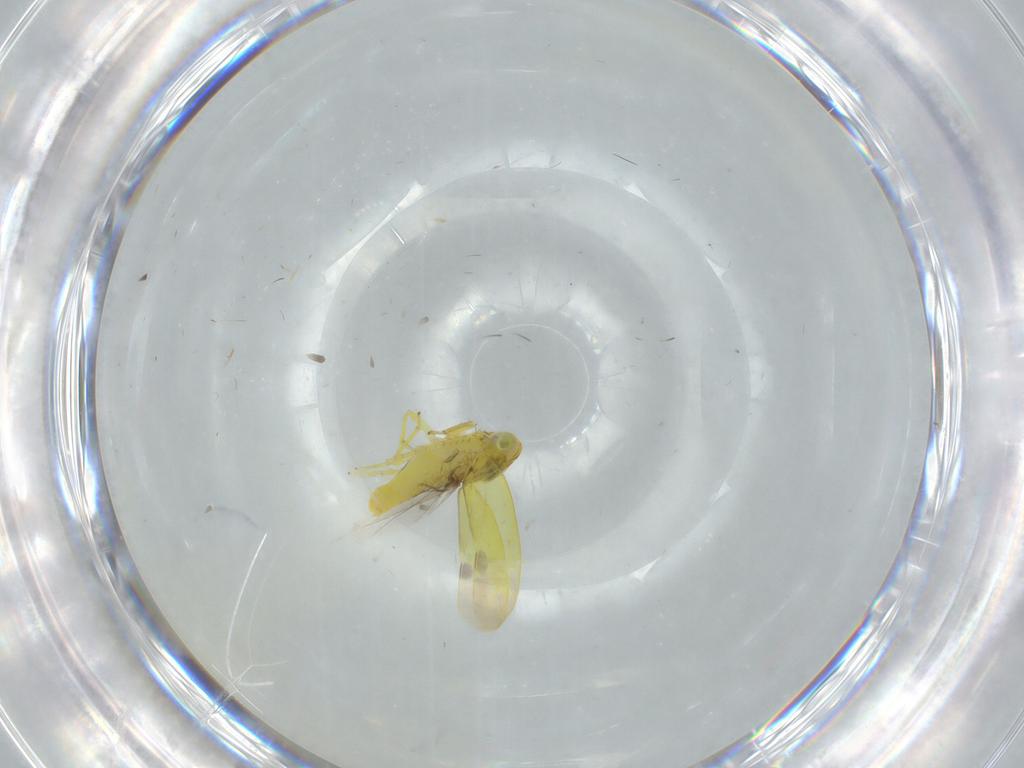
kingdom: Animalia
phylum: Arthropoda
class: Insecta
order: Hemiptera
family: Cicadellidae
